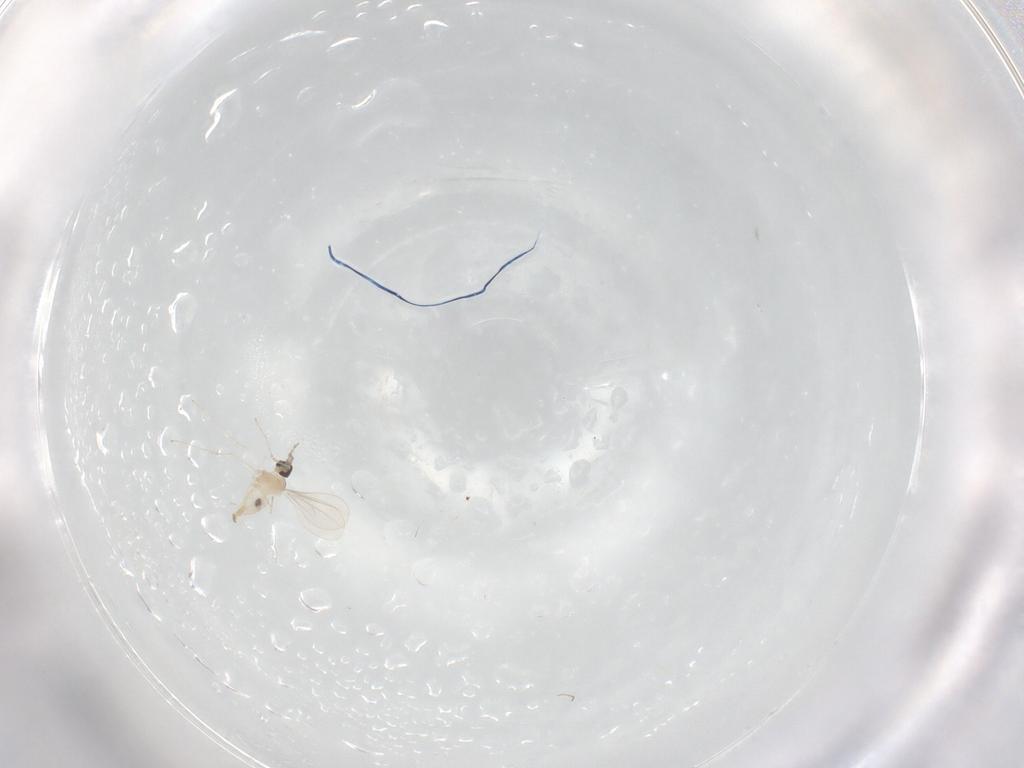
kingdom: Animalia
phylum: Arthropoda
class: Insecta
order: Diptera
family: Cecidomyiidae
